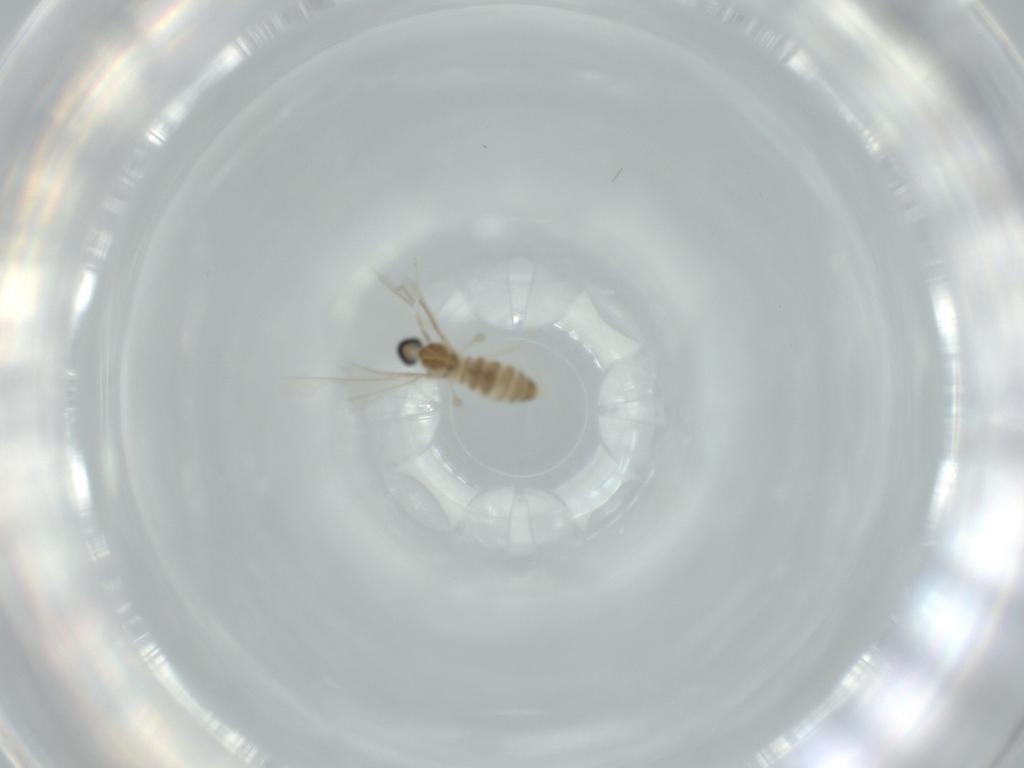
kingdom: Animalia
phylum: Arthropoda
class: Insecta
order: Diptera
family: Cecidomyiidae
